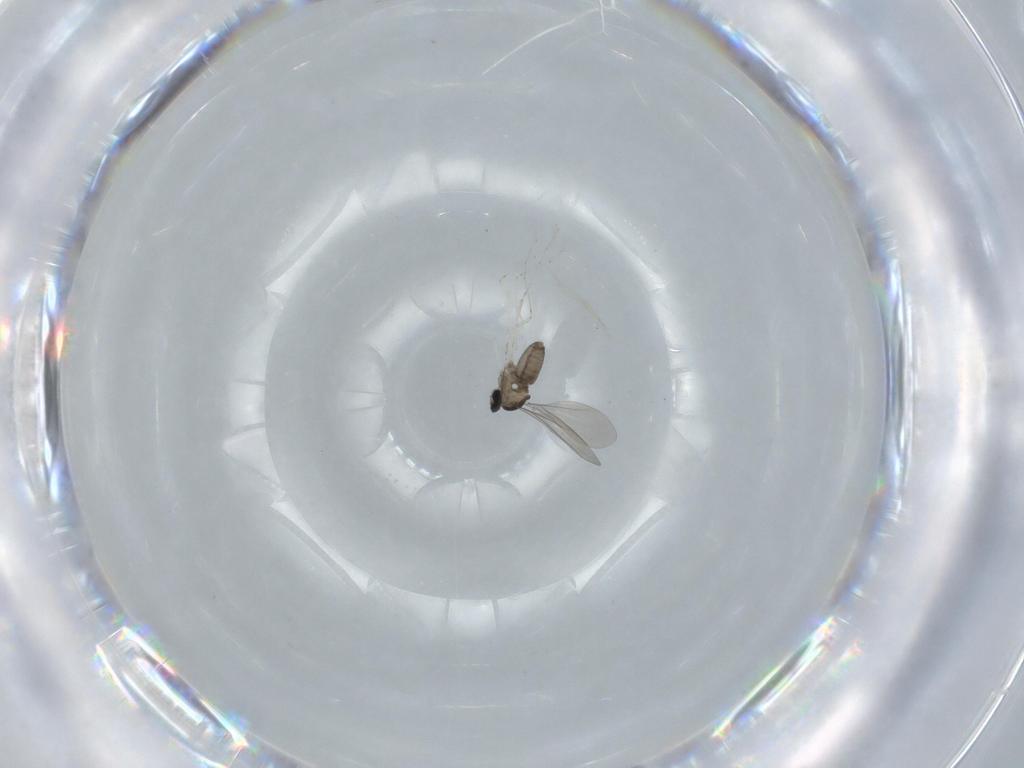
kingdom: Animalia
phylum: Arthropoda
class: Insecta
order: Diptera
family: Cecidomyiidae
